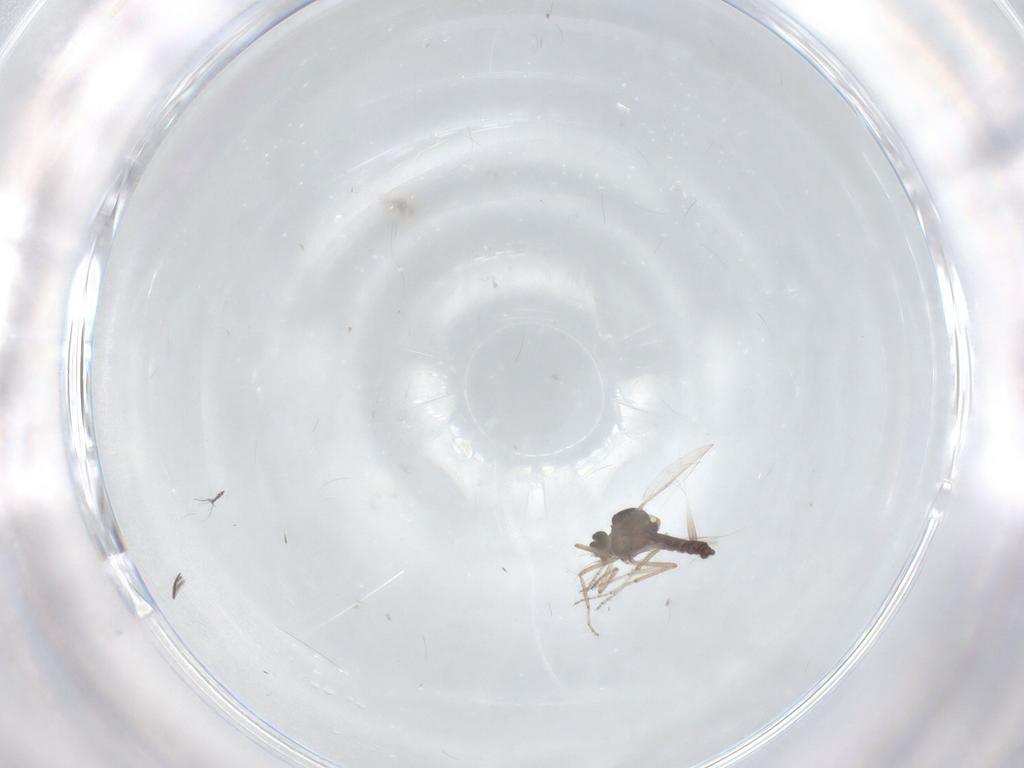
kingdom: Animalia
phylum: Arthropoda
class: Insecta
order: Diptera
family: Ceratopogonidae
